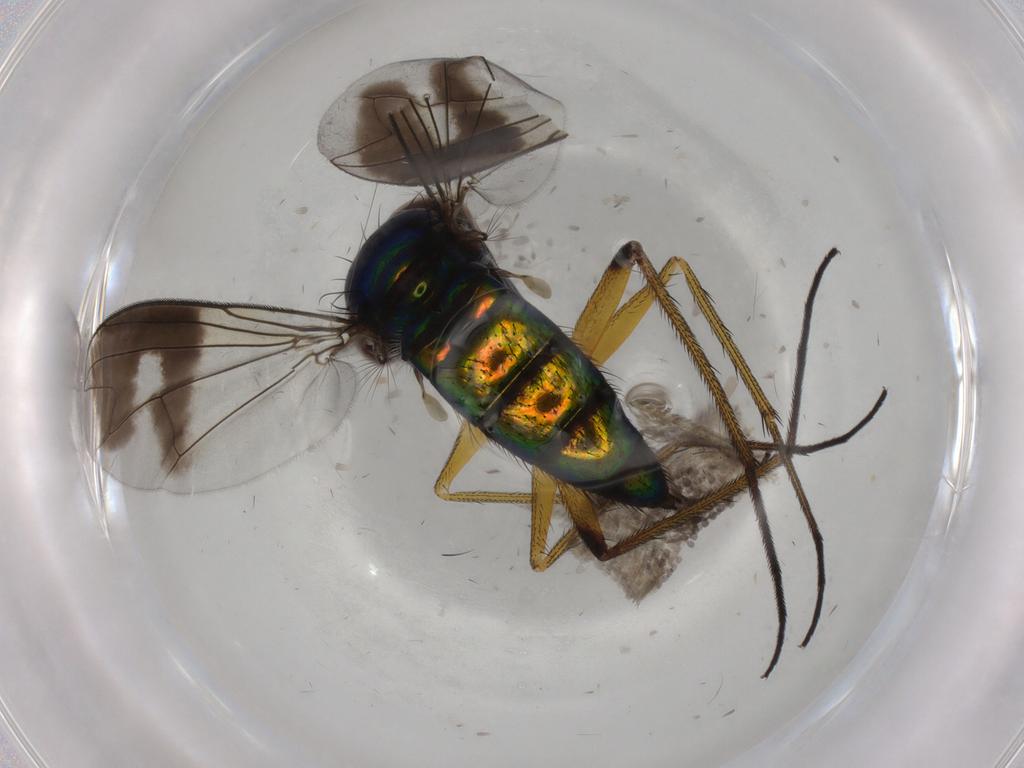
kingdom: Animalia
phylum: Arthropoda
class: Insecta
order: Diptera
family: Dolichopodidae
